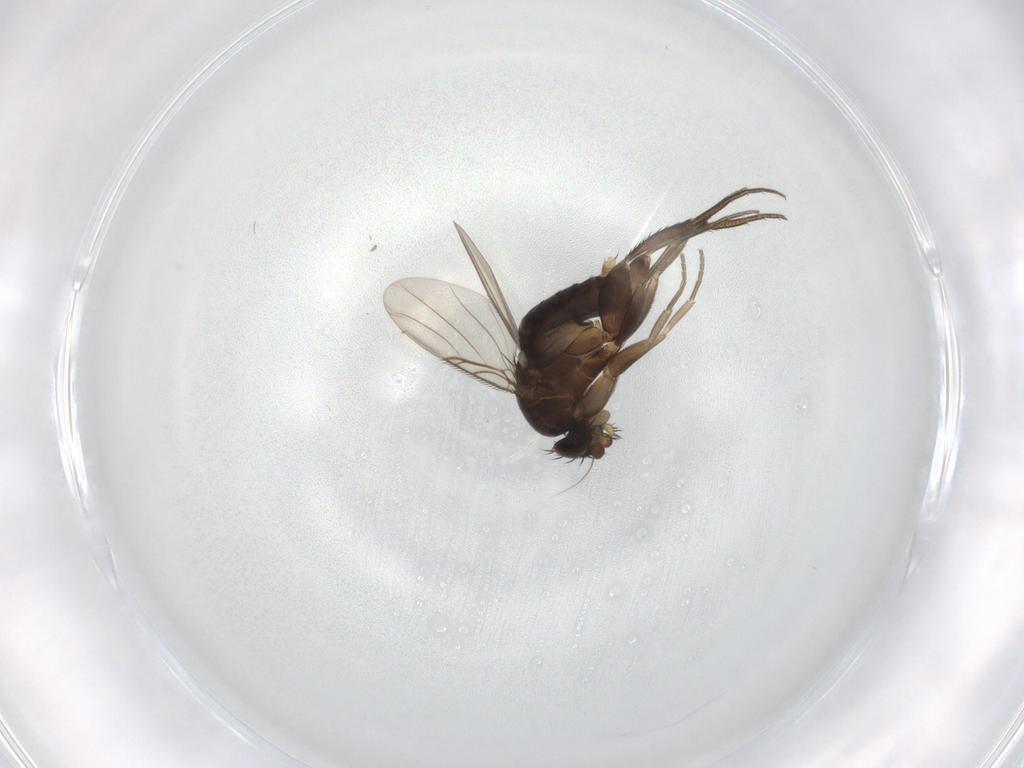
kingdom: Animalia
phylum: Arthropoda
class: Insecta
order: Diptera
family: Phoridae
